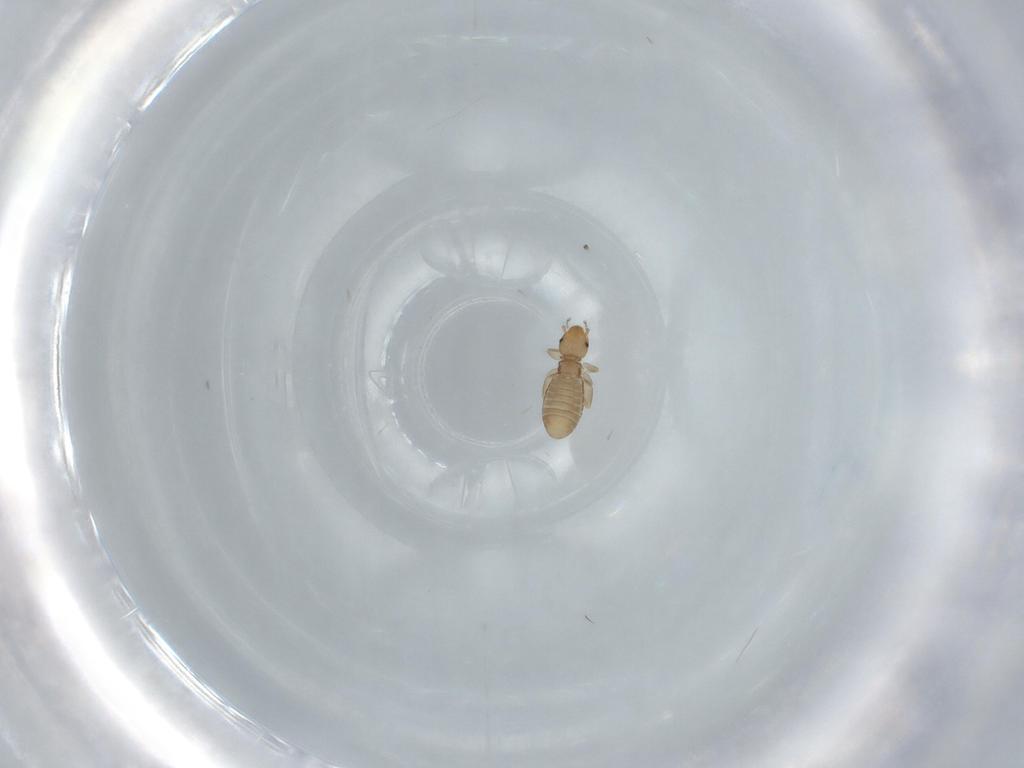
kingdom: Animalia
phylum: Arthropoda
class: Insecta
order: Psocodea
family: Liposcelididae
